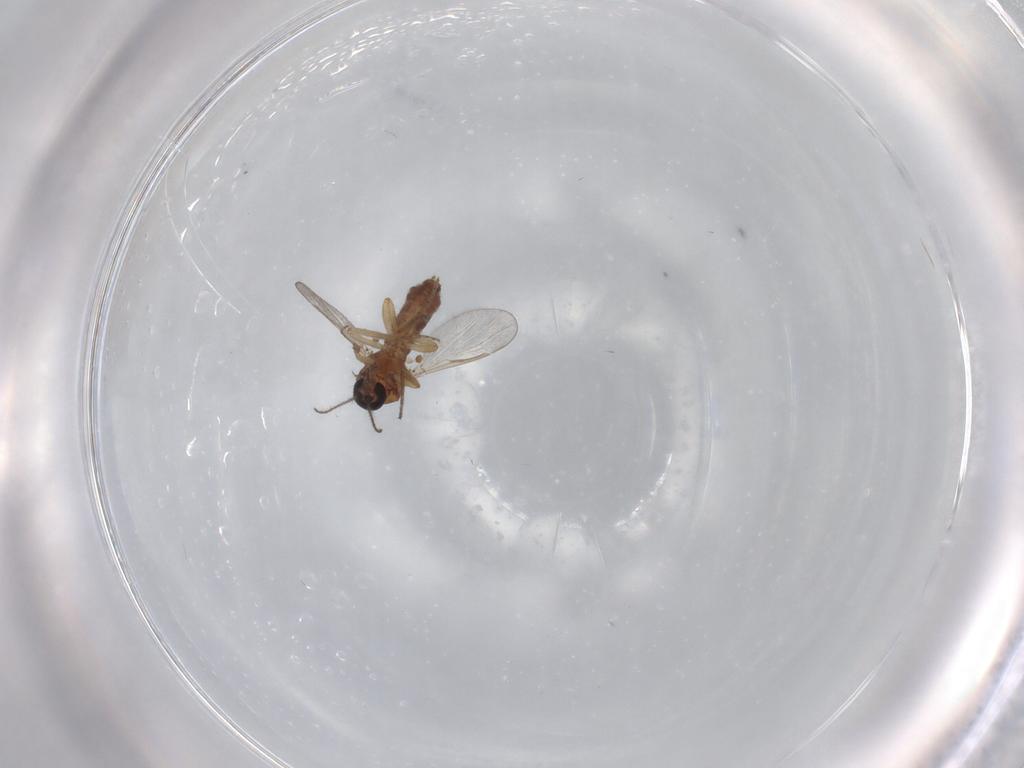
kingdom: Animalia
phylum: Arthropoda
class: Insecta
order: Diptera
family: Ceratopogonidae
